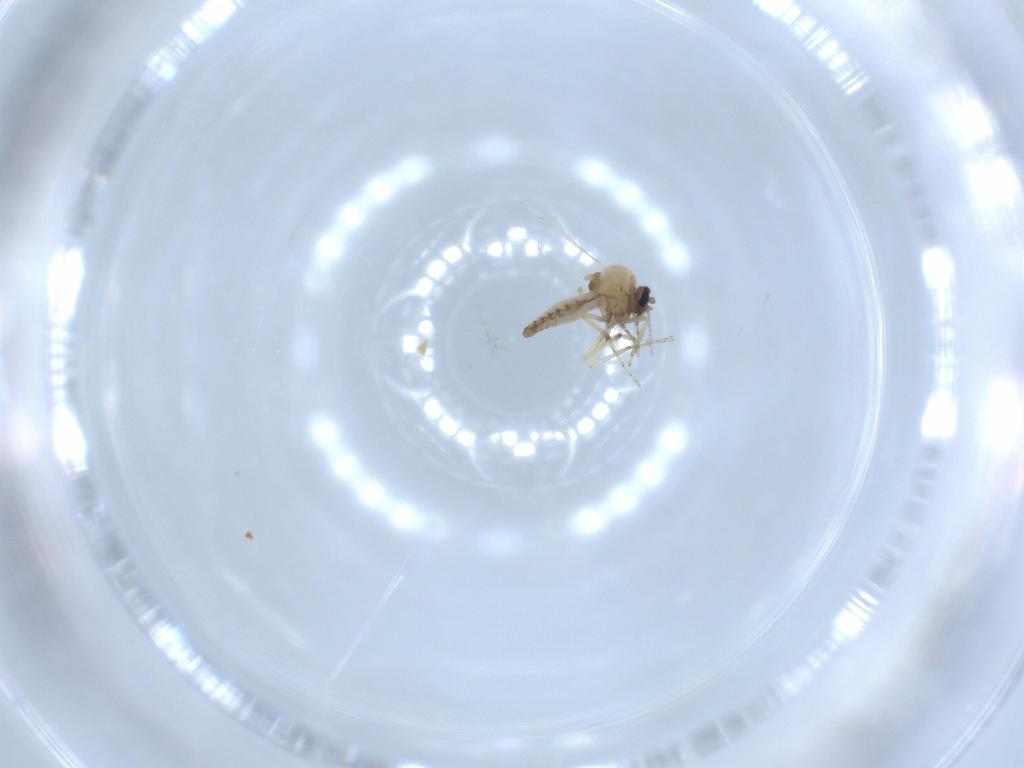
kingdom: Animalia
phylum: Arthropoda
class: Insecta
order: Diptera
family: Ceratopogonidae
